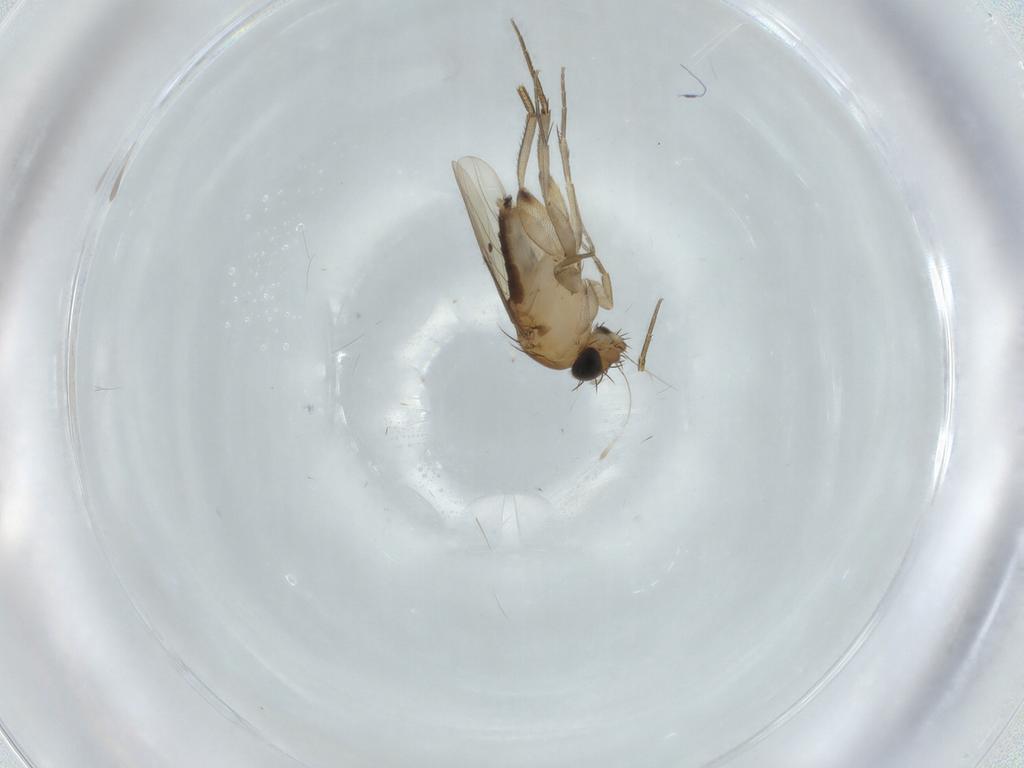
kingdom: Animalia
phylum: Arthropoda
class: Insecta
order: Diptera
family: Phoridae
